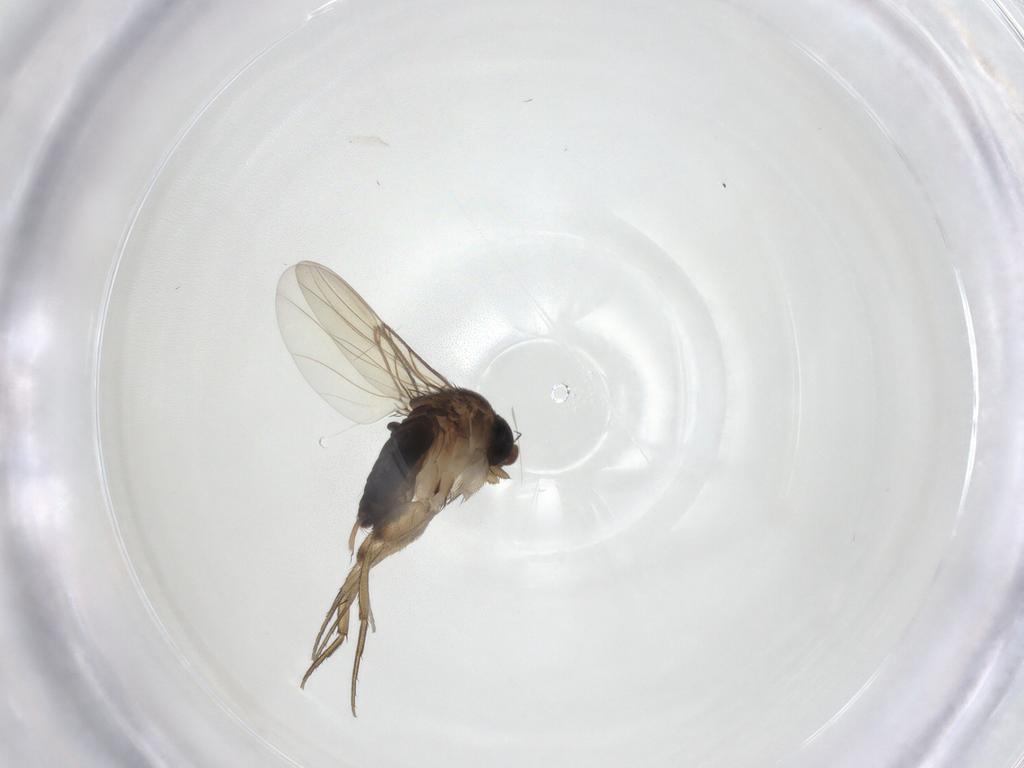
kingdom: Animalia
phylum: Arthropoda
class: Insecta
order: Diptera
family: Phoridae
